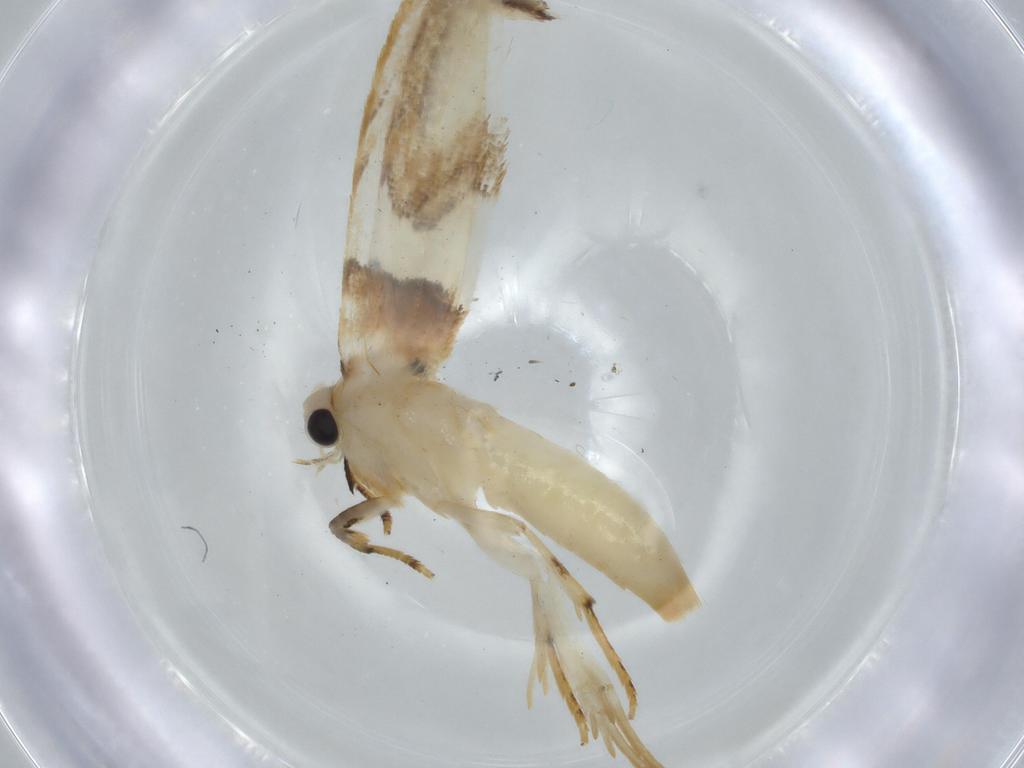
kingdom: Animalia
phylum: Arthropoda
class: Insecta
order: Lepidoptera
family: Tineidae
